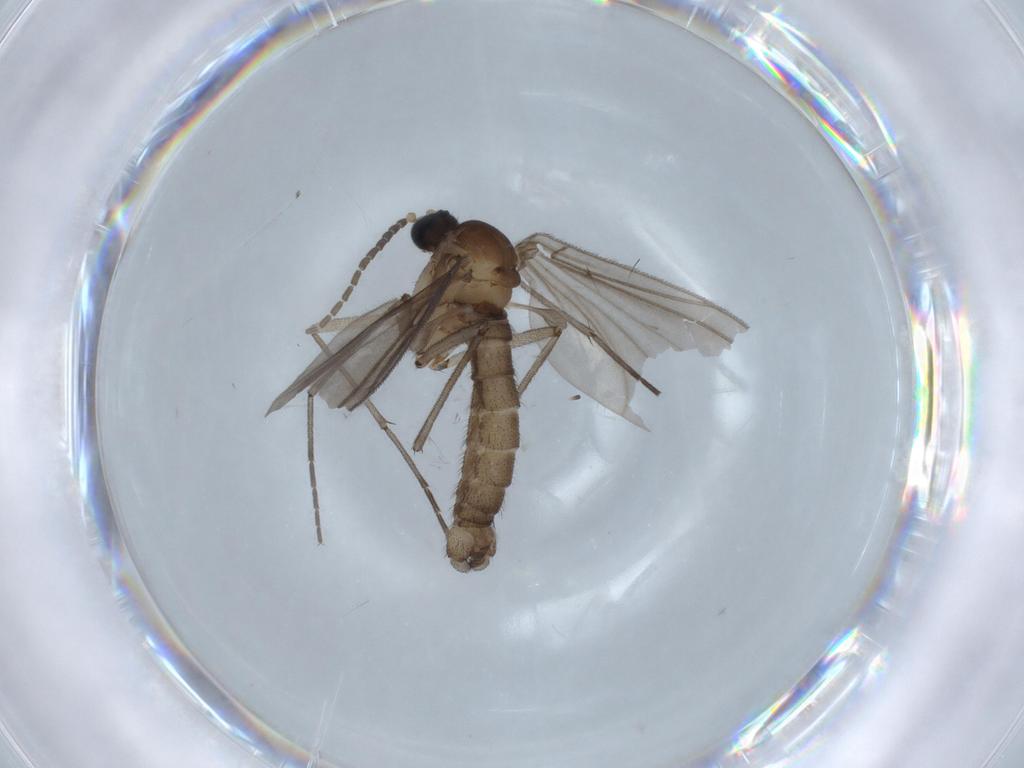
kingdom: Animalia
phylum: Arthropoda
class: Insecta
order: Diptera
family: Sciaridae
